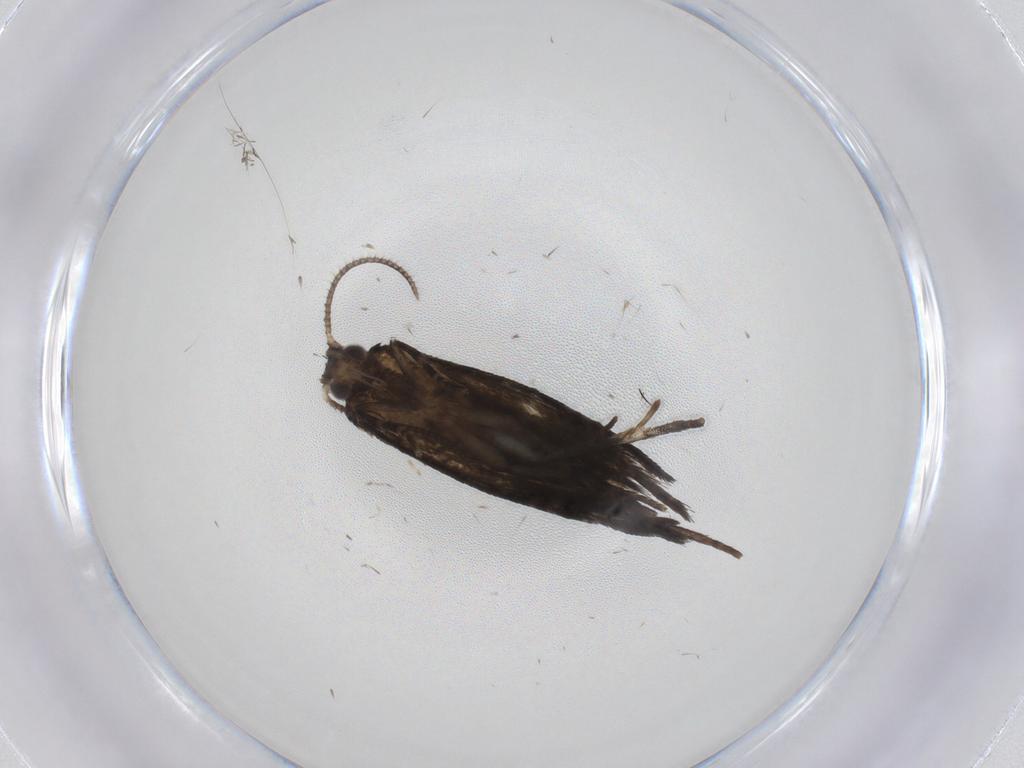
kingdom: Animalia
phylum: Arthropoda
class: Insecta
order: Lepidoptera
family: Tortricidae
